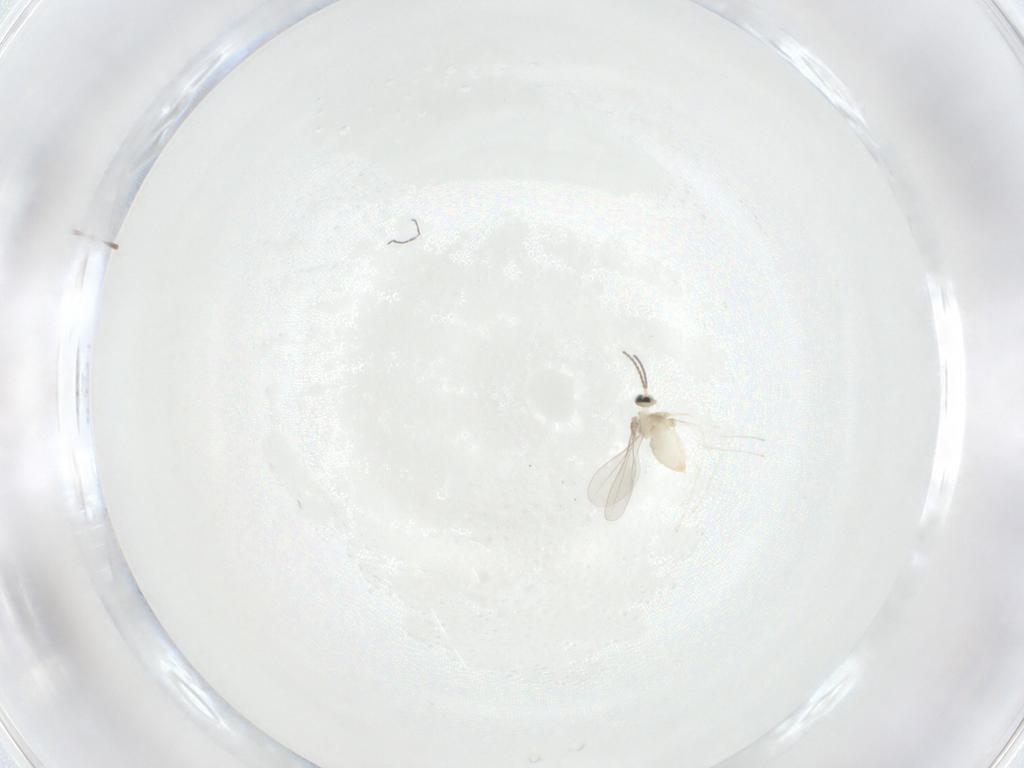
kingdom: Animalia
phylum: Arthropoda
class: Insecta
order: Diptera
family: Cecidomyiidae
